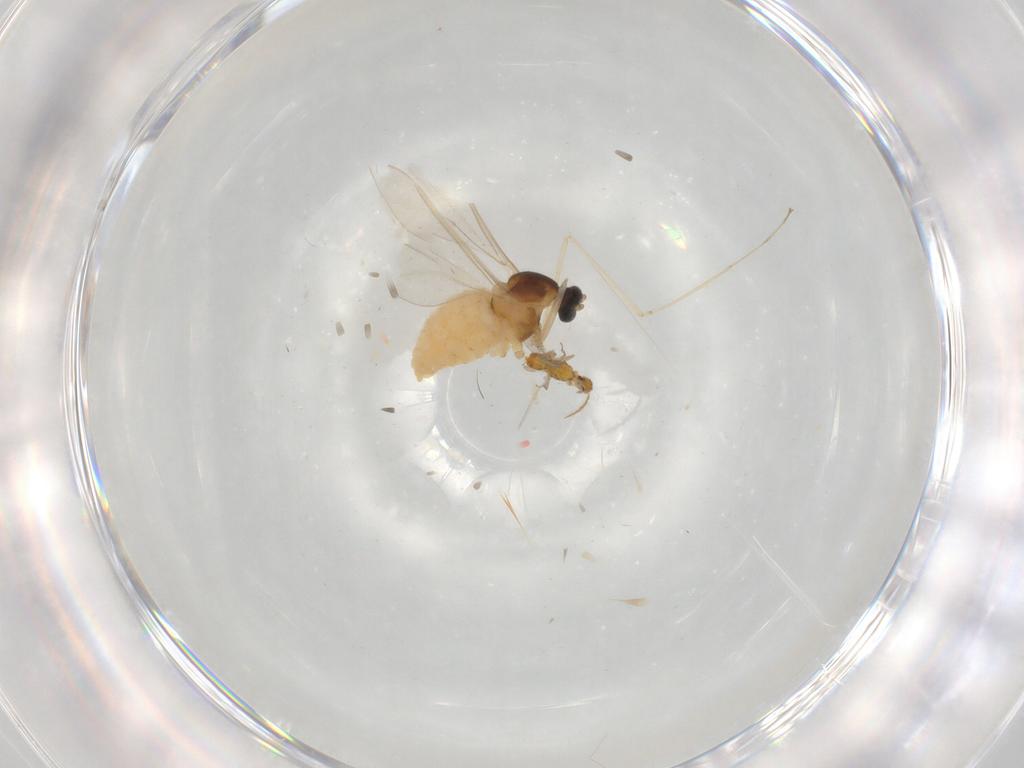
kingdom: Animalia
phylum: Arthropoda
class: Insecta
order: Diptera
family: Cecidomyiidae
